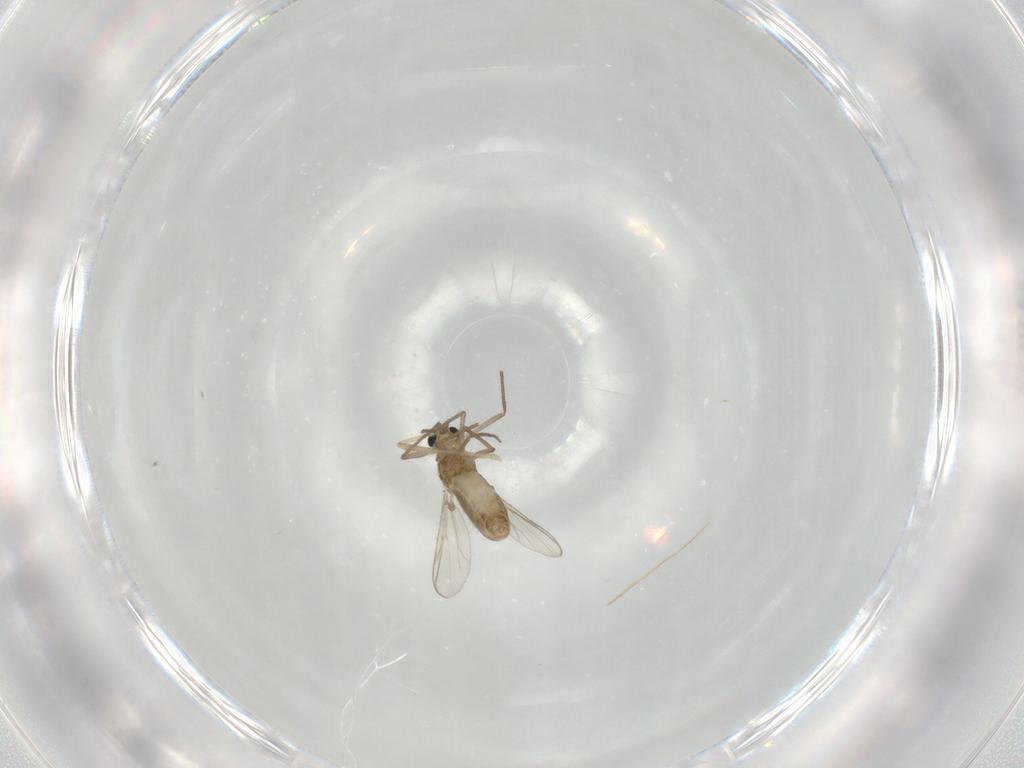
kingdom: Animalia
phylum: Arthropoda
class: Insecta
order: Diptera
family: Chironomidae
